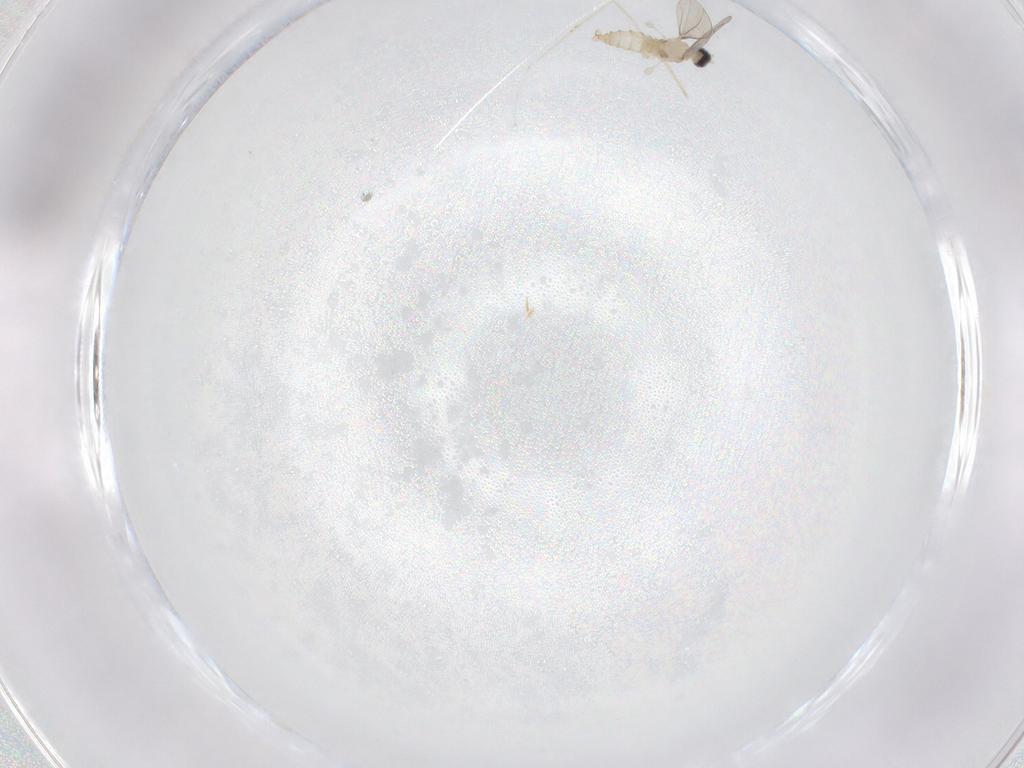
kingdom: Animalia
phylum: Arthropoda
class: Insecta
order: Diptera
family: Cecidomyiidae
